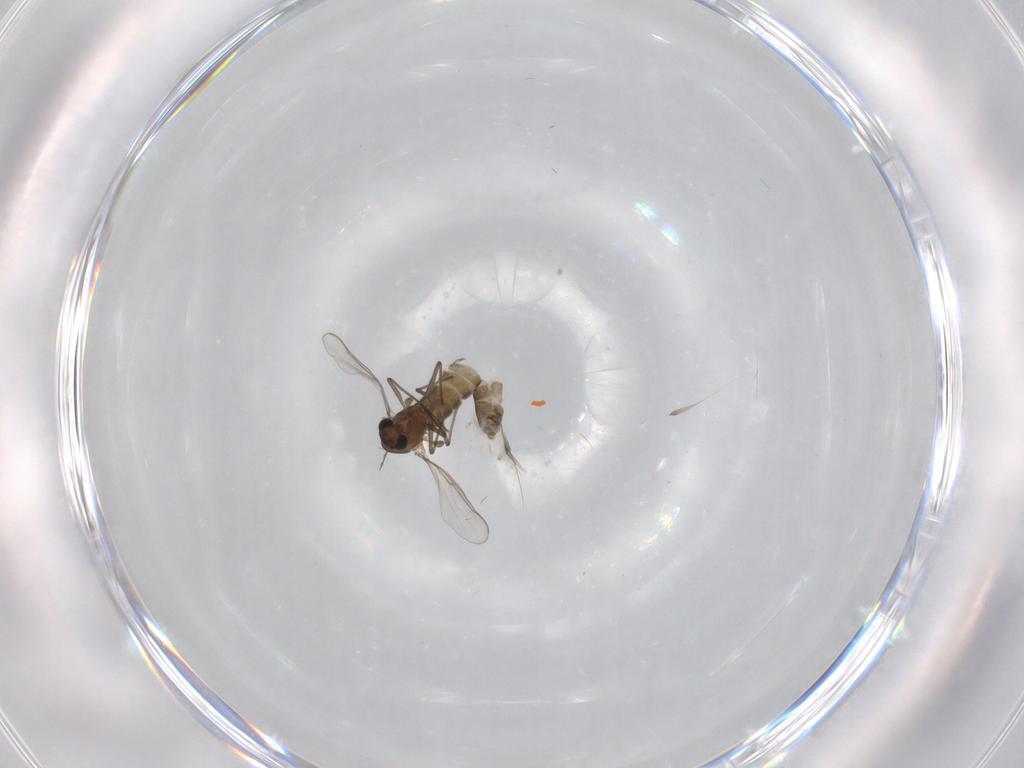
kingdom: Animalia
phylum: Arthropoda
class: Insecta
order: Diptera
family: Chironomidae
